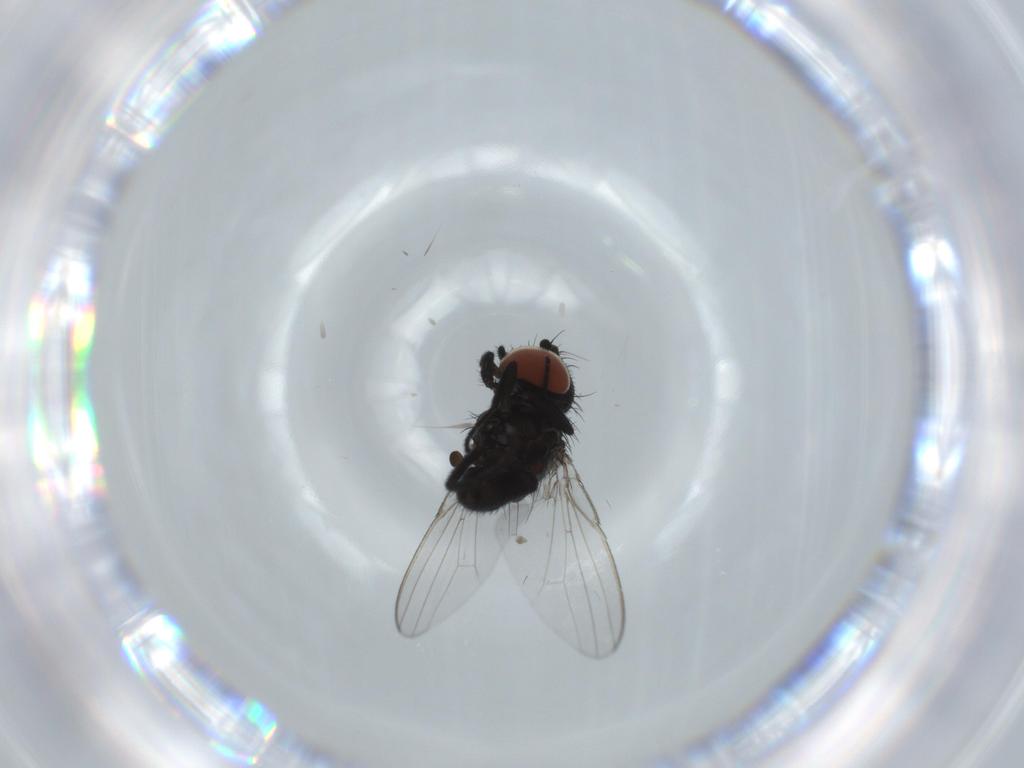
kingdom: Animalia
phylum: Arthropoda
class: Insecta
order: Diptera
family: Milichiidae
